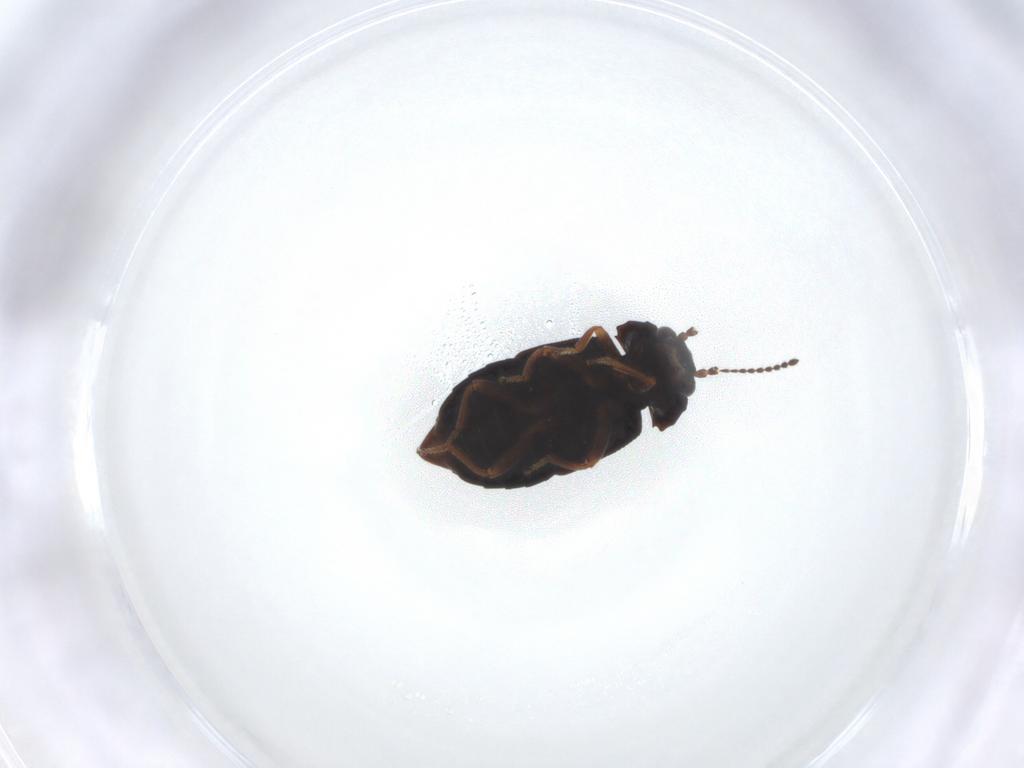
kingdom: Animalia
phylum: Arthropoda
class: Insecta
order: Coleoptera
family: Staphylinidae
